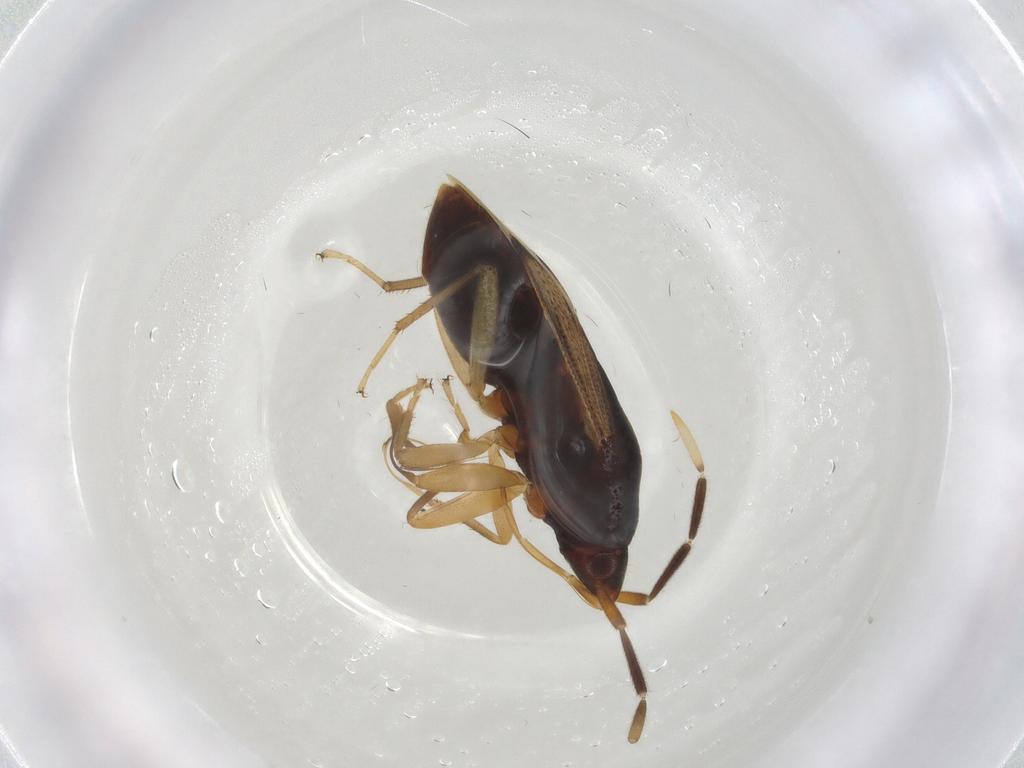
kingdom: Animalia
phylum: Arthropoda
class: Insecta
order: Hemiptera
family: Rhyparochromidae
